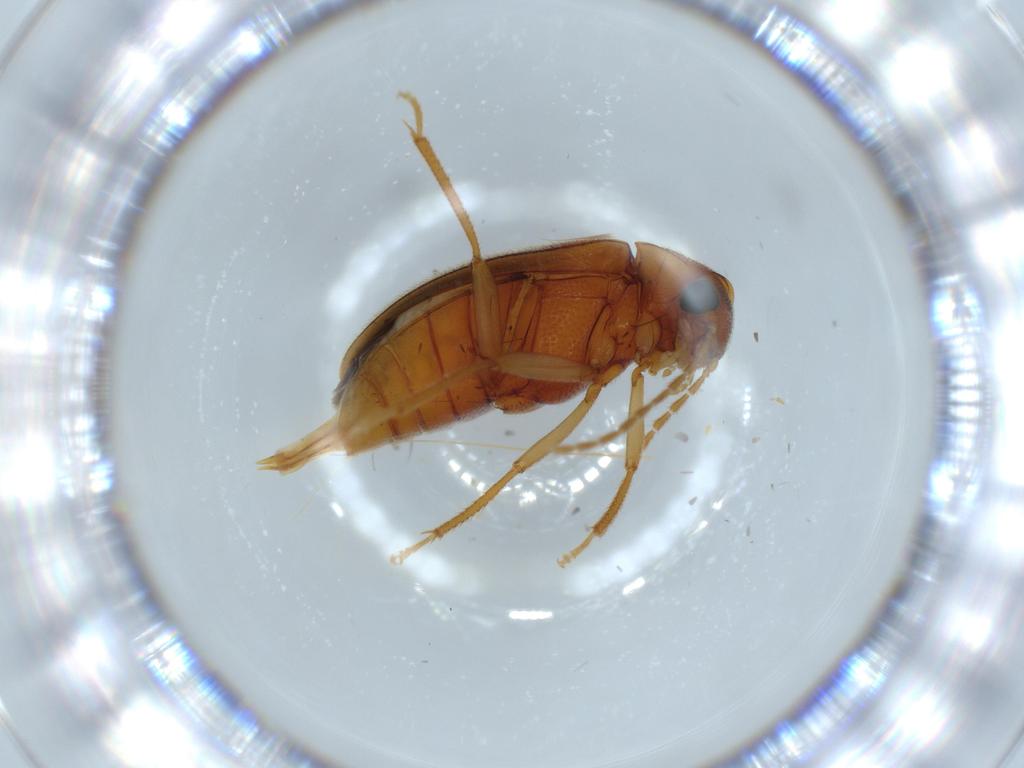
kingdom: Animalia
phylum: Arthropoda
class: Insecta
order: Coleoptera
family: Ptilodactylidae
